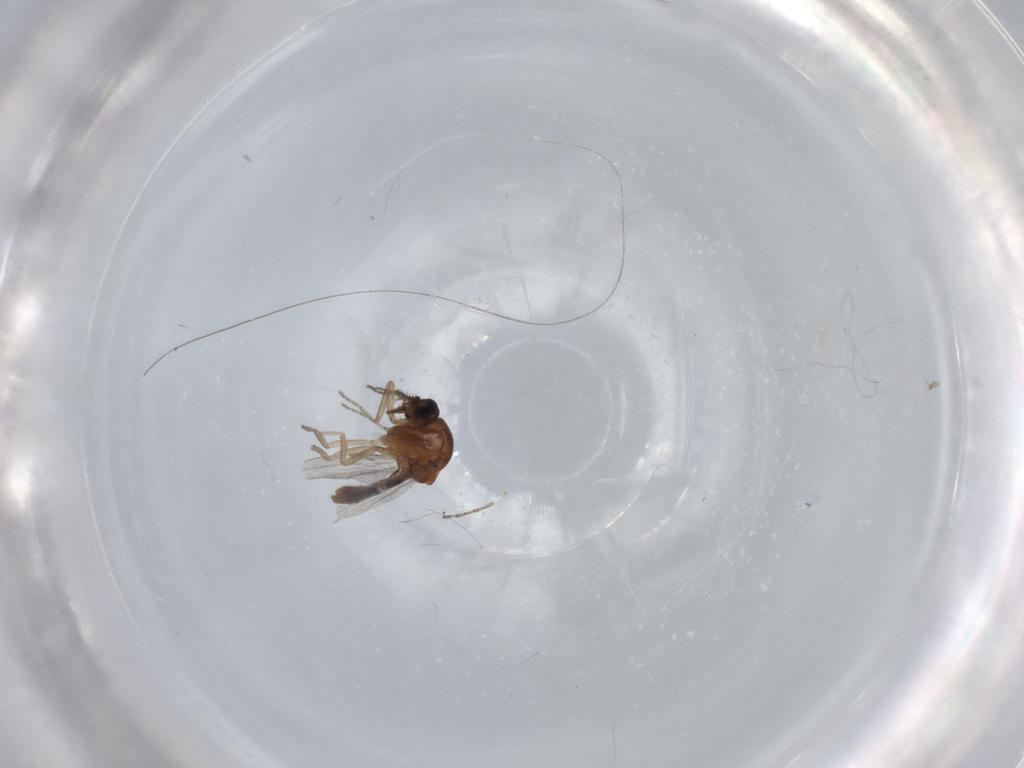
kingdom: Animalia
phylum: Arthropoda
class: Insecta
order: Diptera
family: Ceratopogonidae
